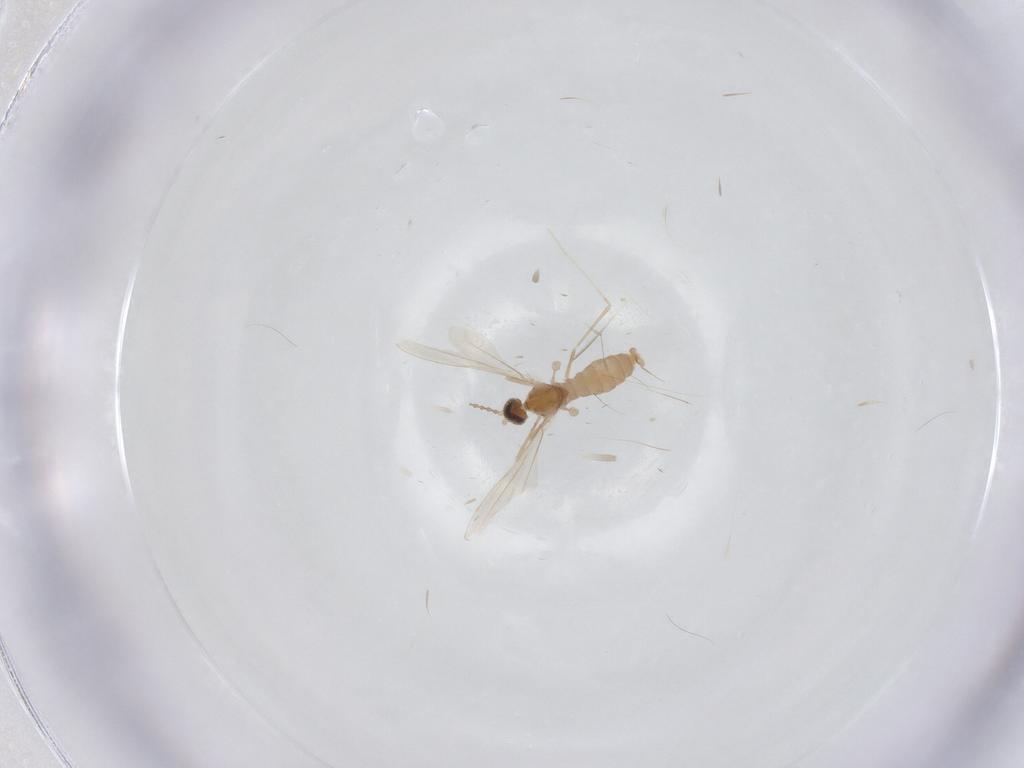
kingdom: Animalia
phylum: Arthropoda
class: Insecta
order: Diptera
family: Cecidomyiidae
